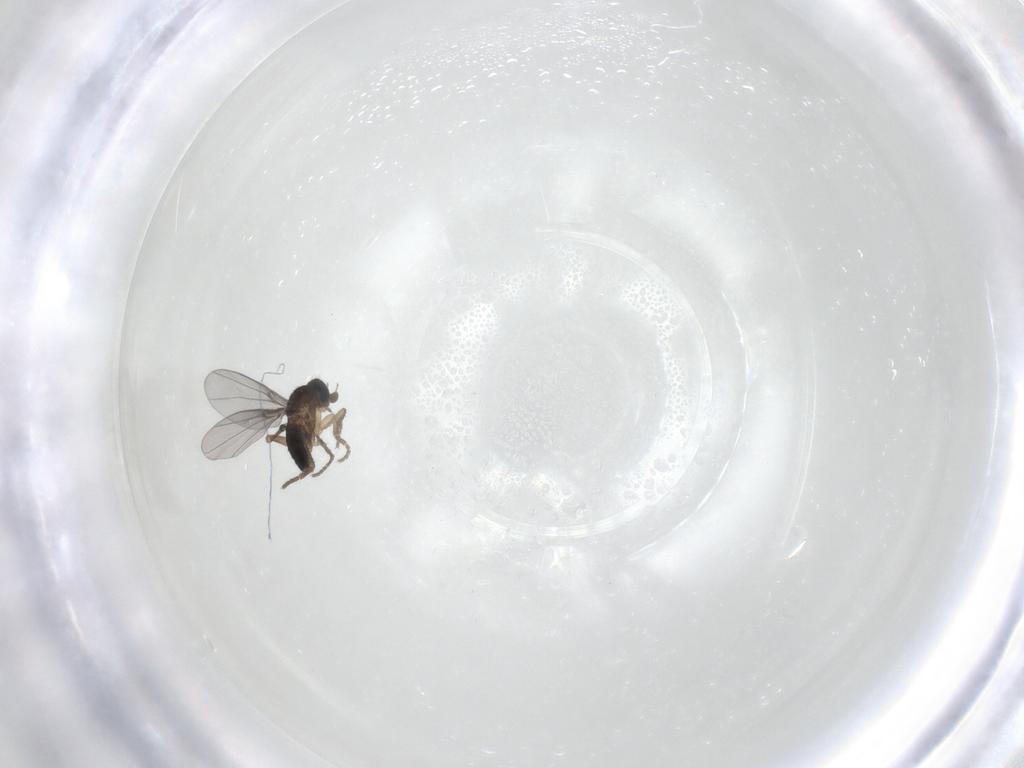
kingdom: Animalia
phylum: Arthropoda
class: Insecta
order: Diptera
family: Phoridae
